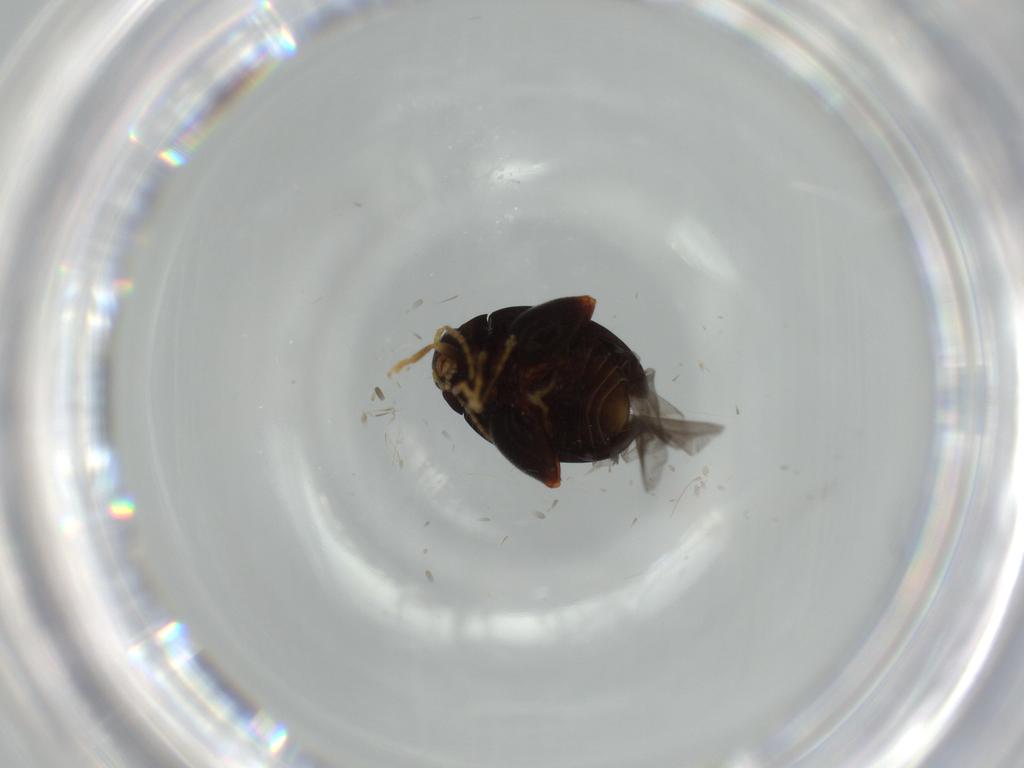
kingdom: Animalia
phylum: Arthropoda
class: Insecta
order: Coleoptera
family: Chrysomelidae
